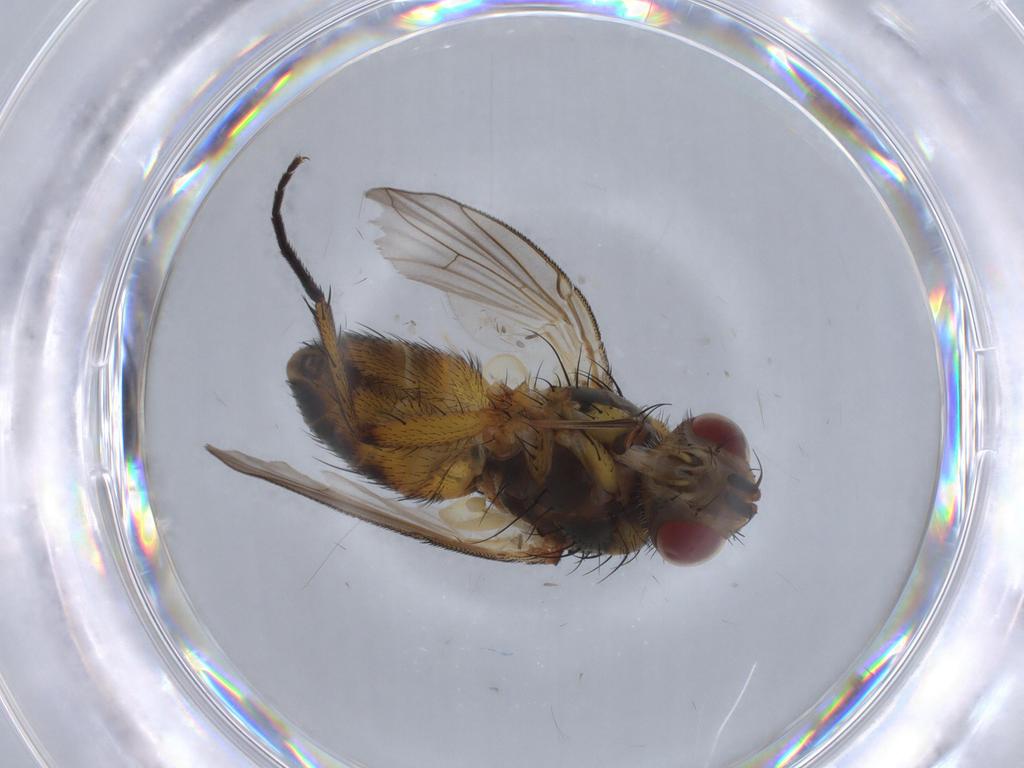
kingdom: Animalia
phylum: Arthropoda
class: Insecta
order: Diptera
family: Cecidomyiidae
